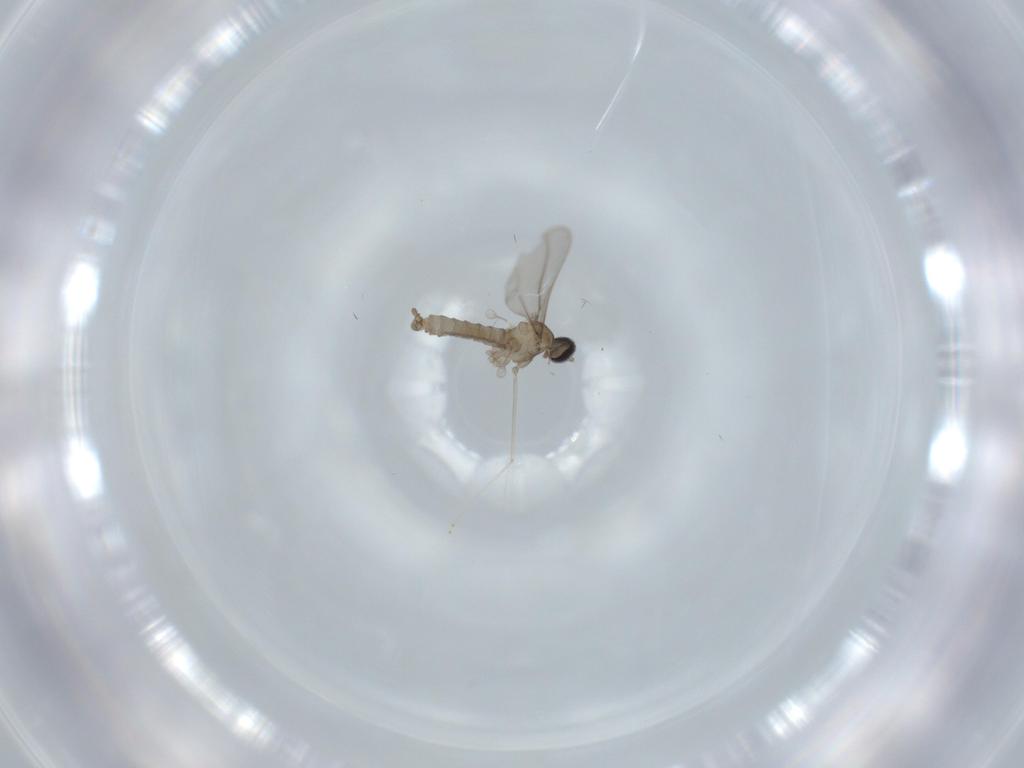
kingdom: Animalia
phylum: Arthropoda
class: Insecta
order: Diptera
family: Cecidomyiidae
